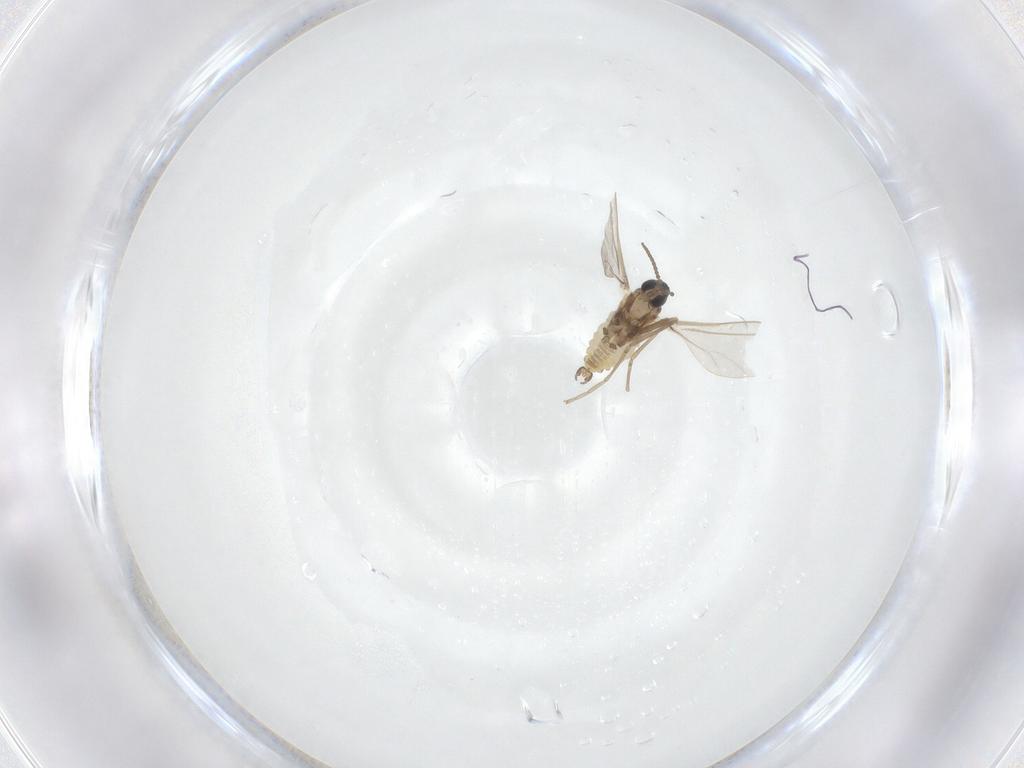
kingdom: Animalia
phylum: Arthropoda
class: Insecta
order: Diptera
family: Cecidomyiidae
